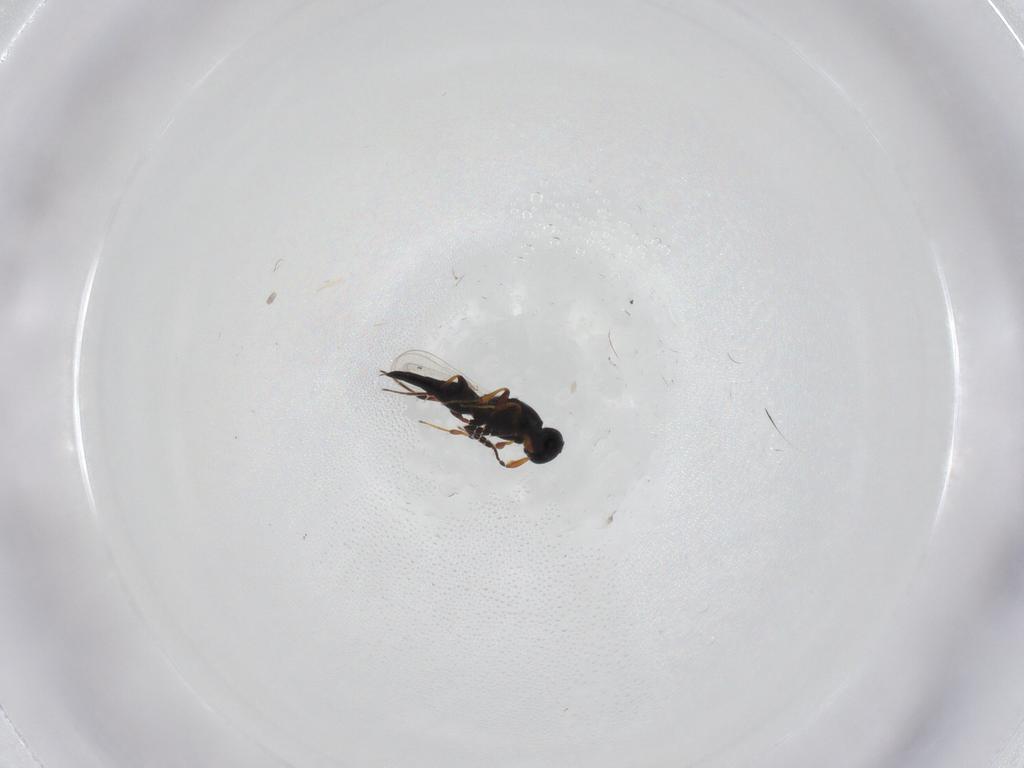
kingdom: Animalia
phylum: Arthropoda
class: Insecta
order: Hymenoptera
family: Platygastridae
